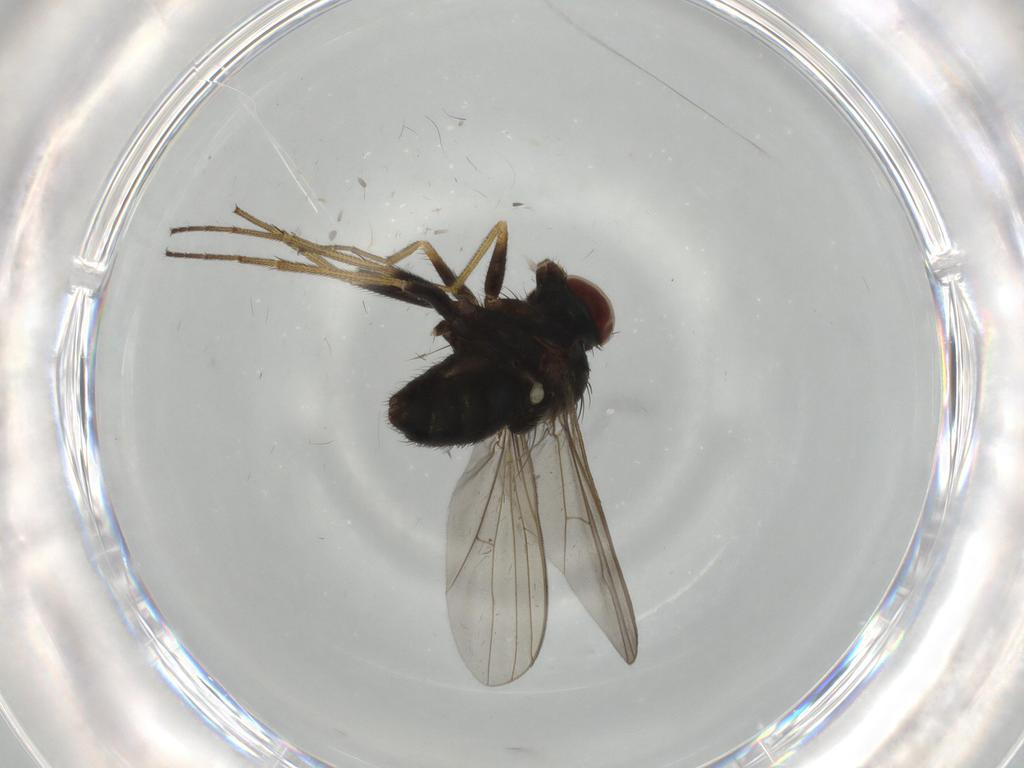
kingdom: Animalia
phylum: Arthropoda
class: Insecta
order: Diptera
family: Dolichopodidae
